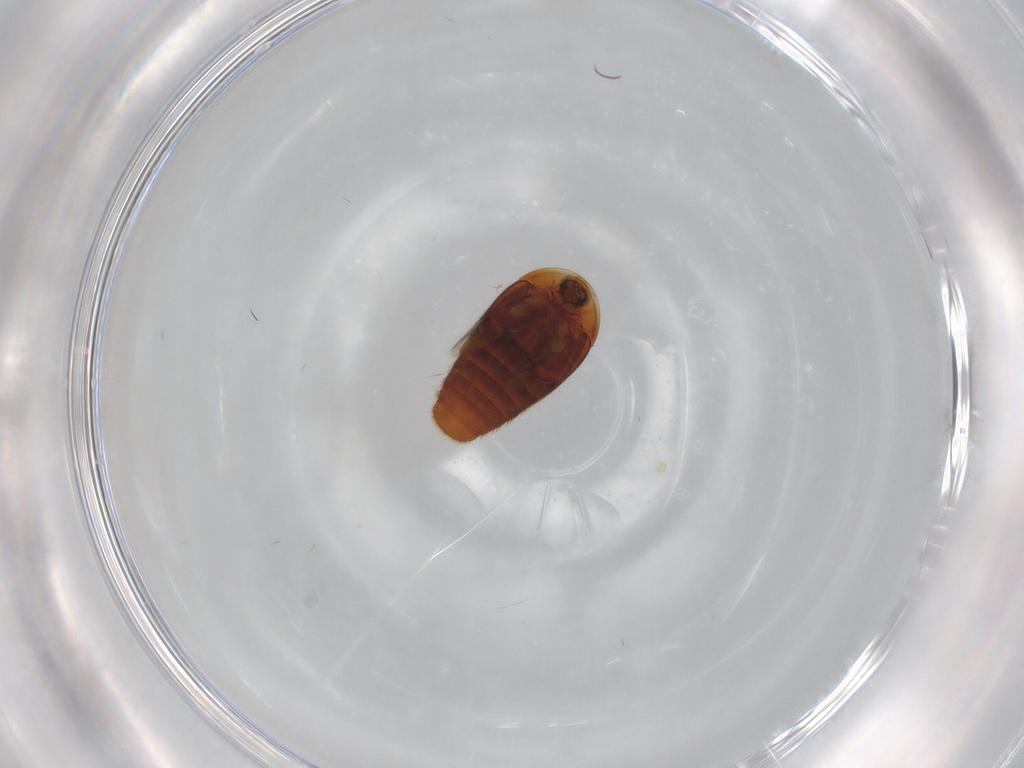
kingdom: Animalia
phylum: Arthropoda
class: Insecta
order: Coleoptera
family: Corylophidae
